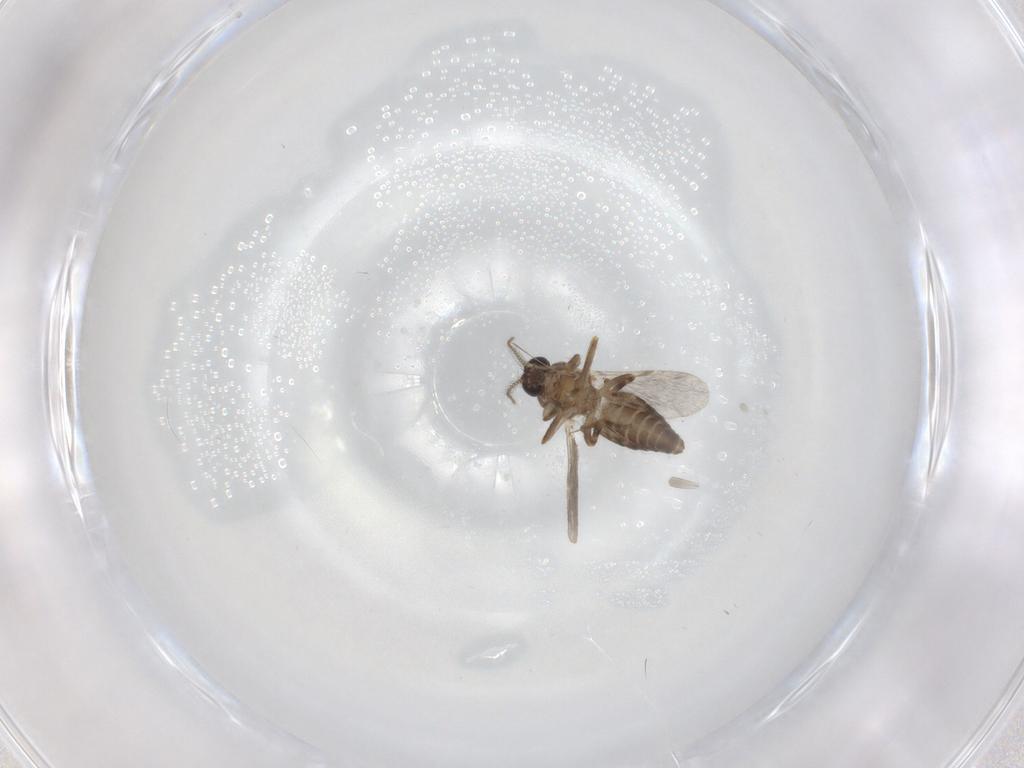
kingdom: Animalia
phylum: Arthropoda
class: Insecta
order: Diptera
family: Ceratopogonidae
